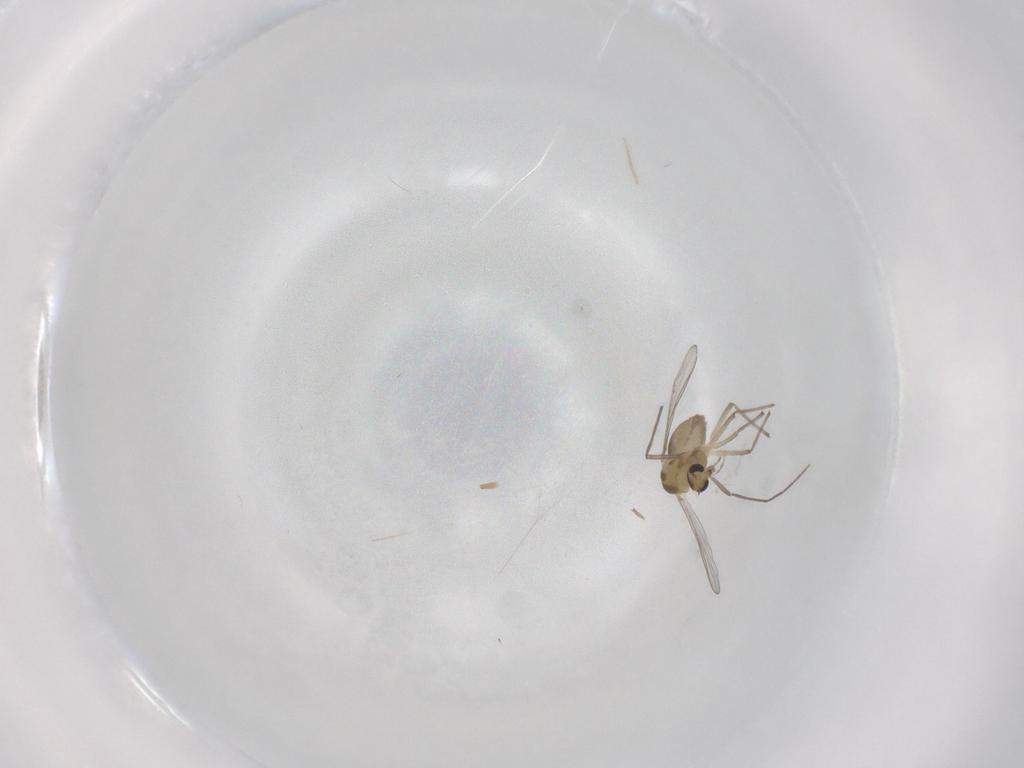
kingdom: Animalia
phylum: Arthropoda
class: Insecta
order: Diptera
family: Chironomidae
